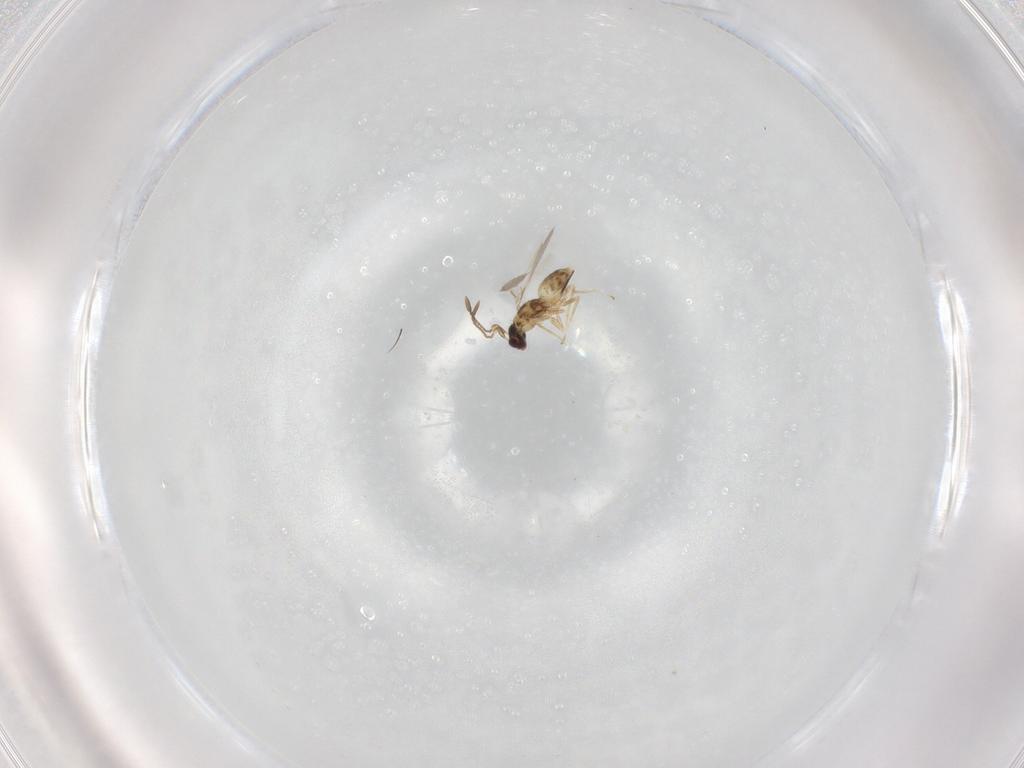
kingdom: Animalia
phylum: Arthropoda
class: Insecta
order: Hymenoptera
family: Mymaridae
